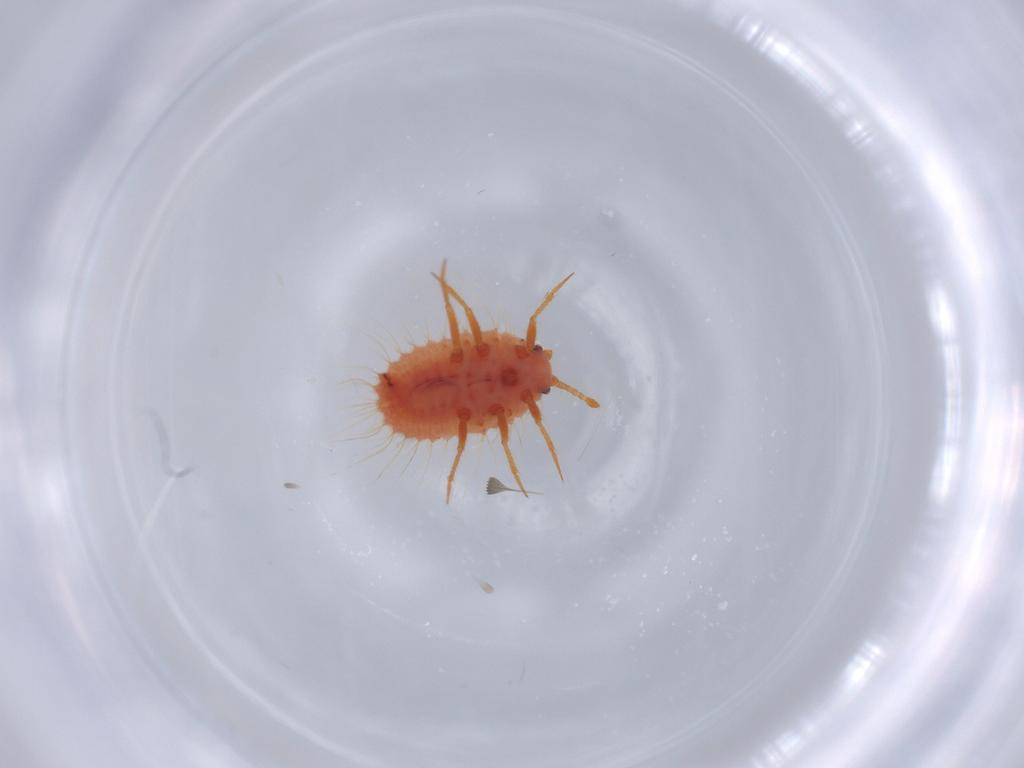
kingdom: Animalia
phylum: Arthropoda
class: Insecta
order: Hemiptera
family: Coccoidea_incertae_sedis
